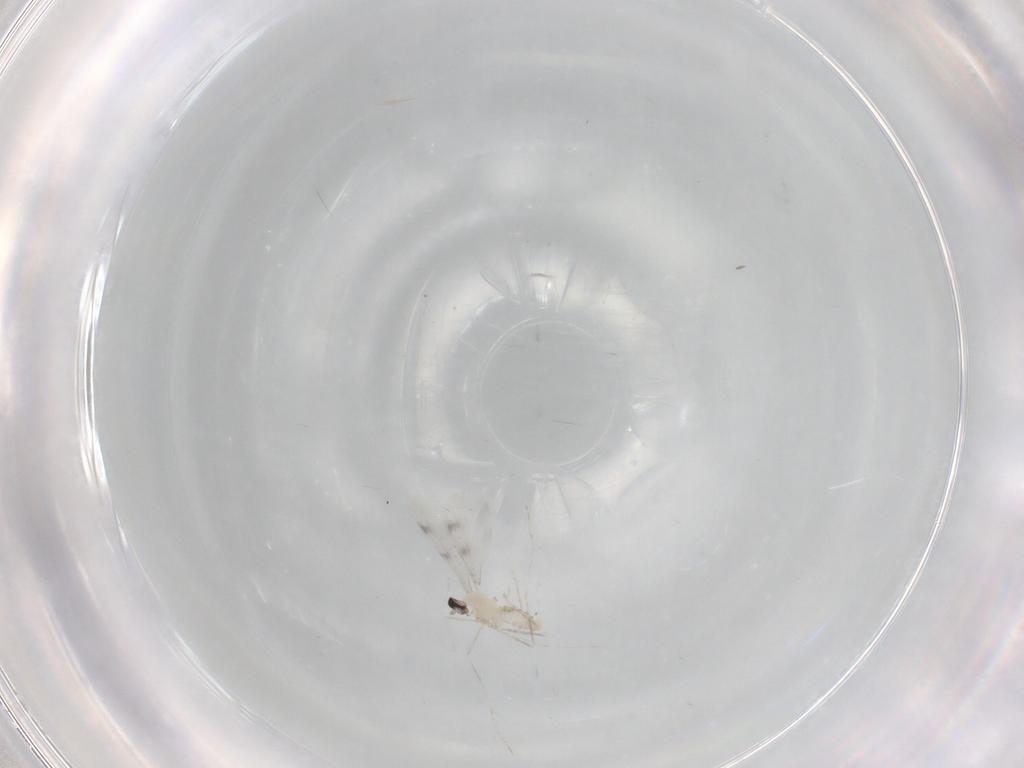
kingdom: Animalia
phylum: Arthropoda
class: Insecta
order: Diptera
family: Cecidomyiidae
